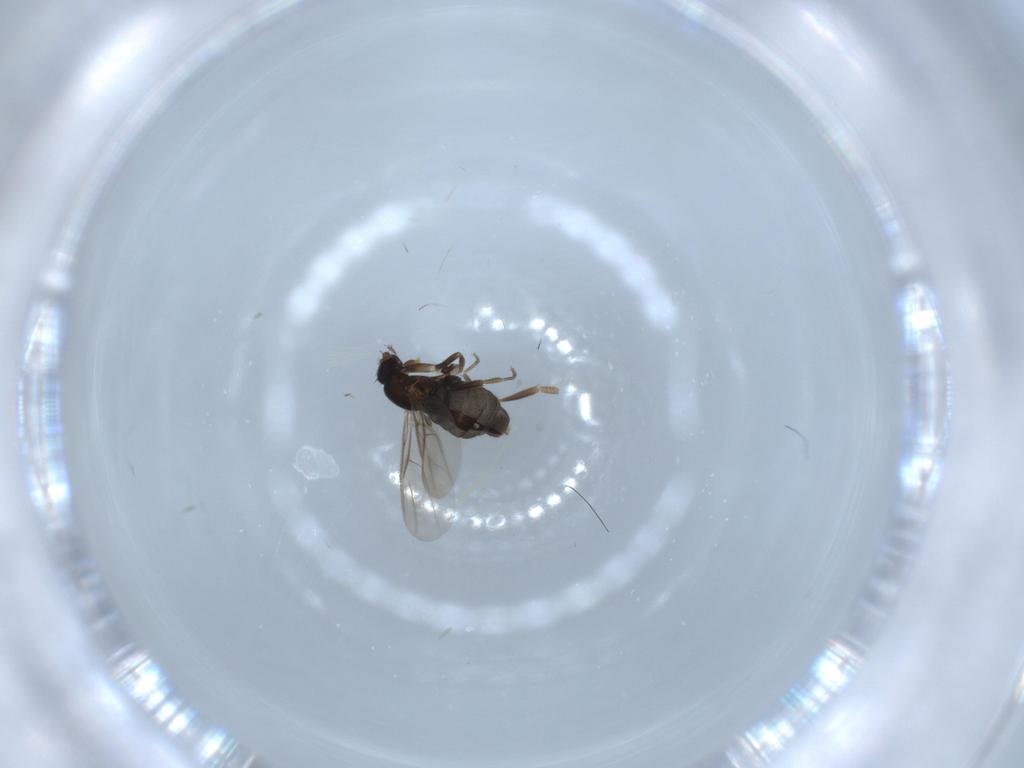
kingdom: Animalia
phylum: Arthropoda
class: Insecta
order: Diptera
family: Phoridae
